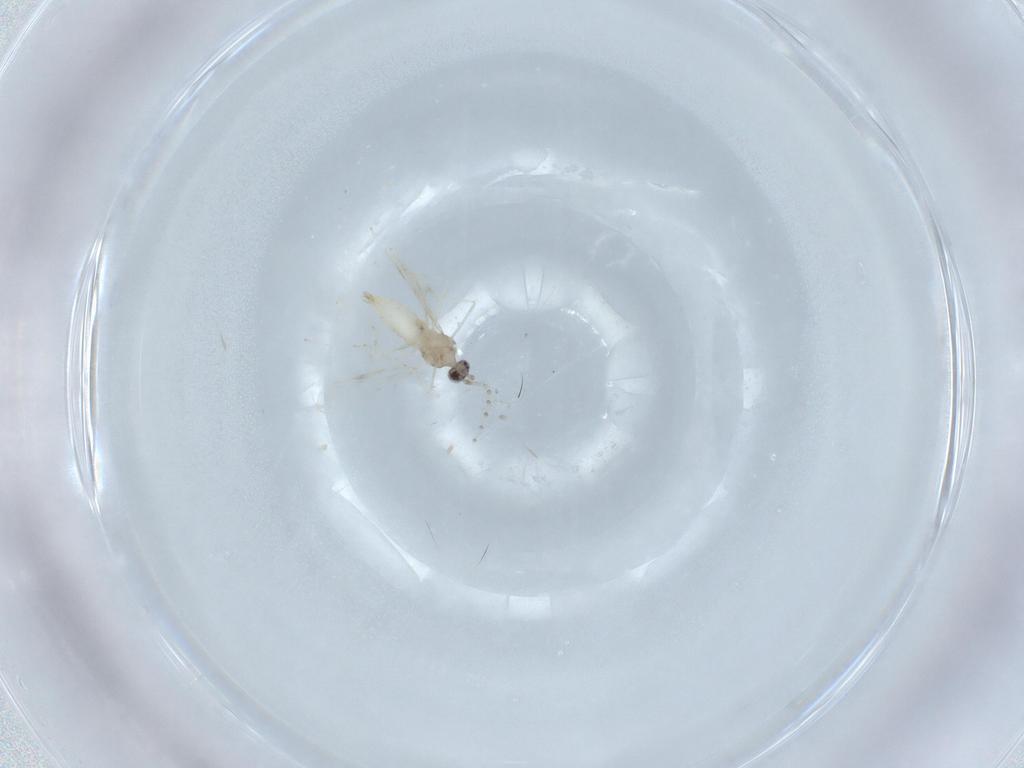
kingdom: Animalia
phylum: Arthropoda
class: Insecta
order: Diptera
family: Cecidomyiidae
